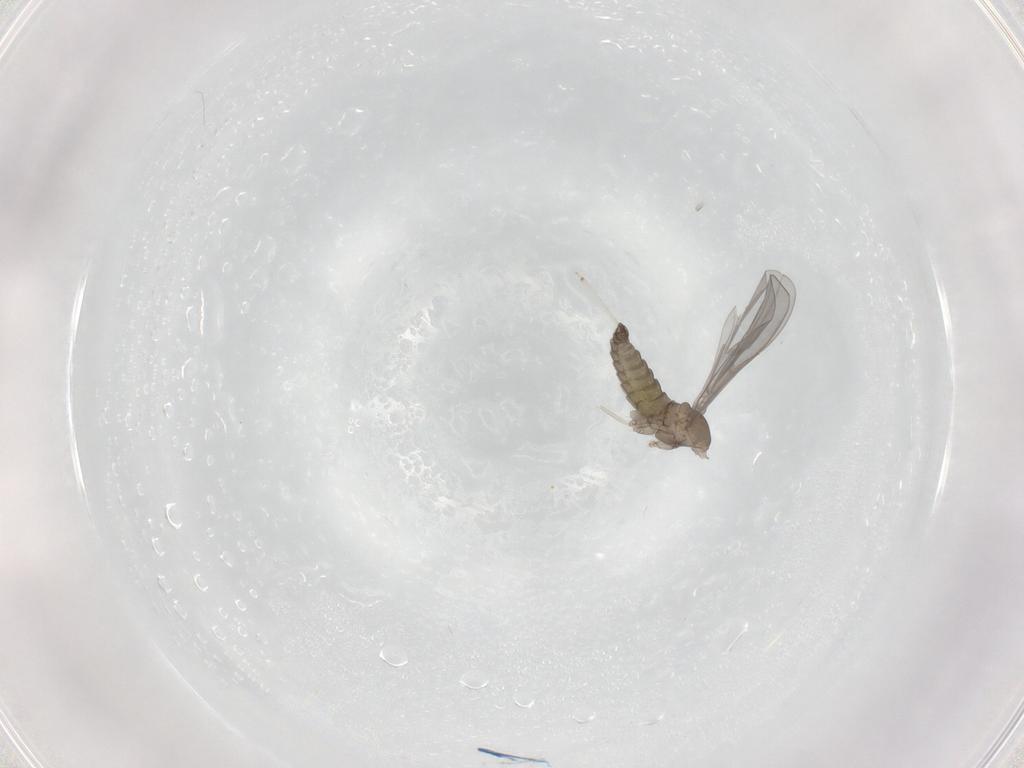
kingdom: Animalia
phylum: Arthropoda
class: Insecta
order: Diptera
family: Cecidomyiidae
